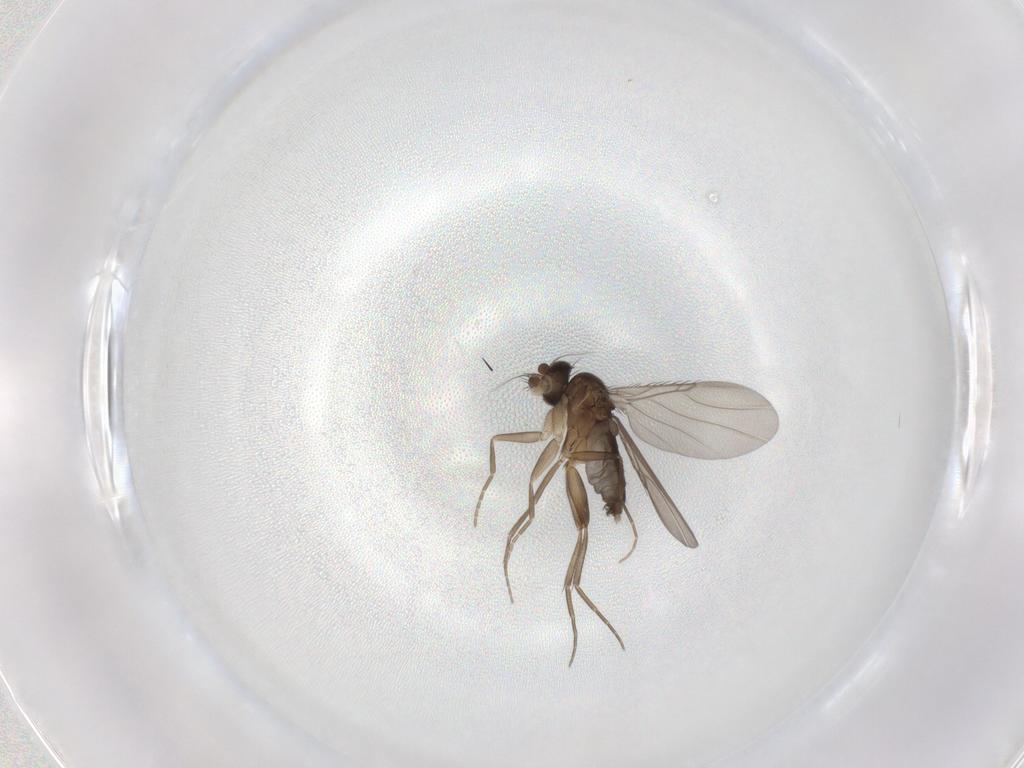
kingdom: Animalia
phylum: Arthropoda
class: Insecta
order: Diptera
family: Phoridae
